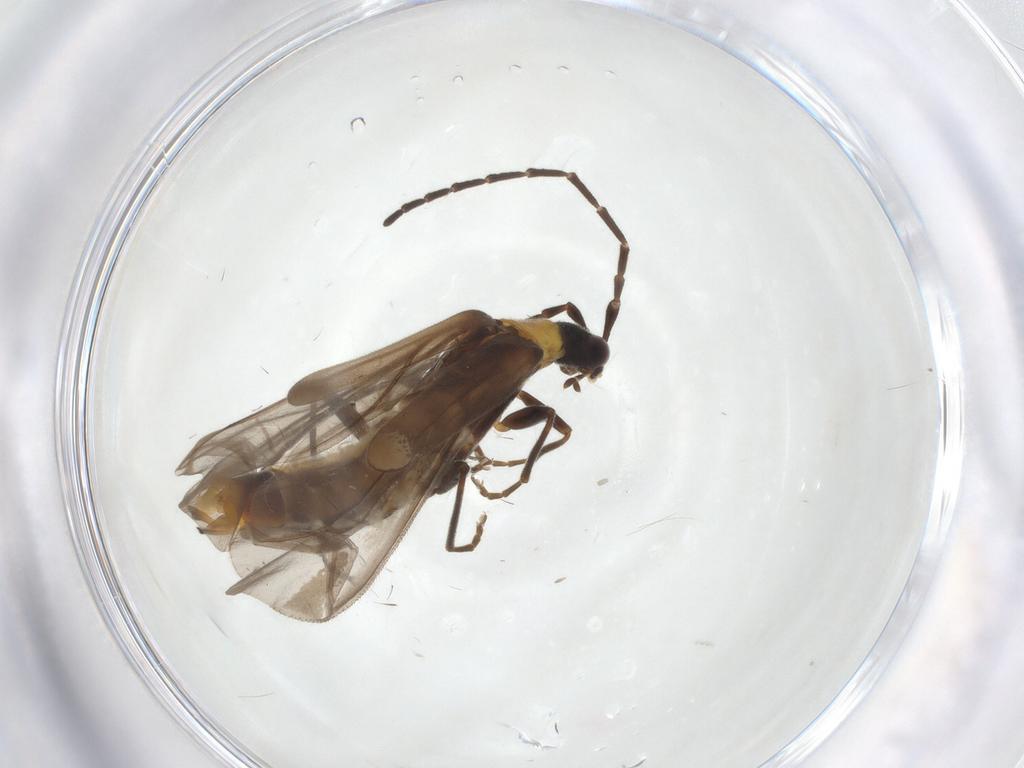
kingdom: Animalia
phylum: Arthropoda
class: Insecta
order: Coleoptera
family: Cantharidae
